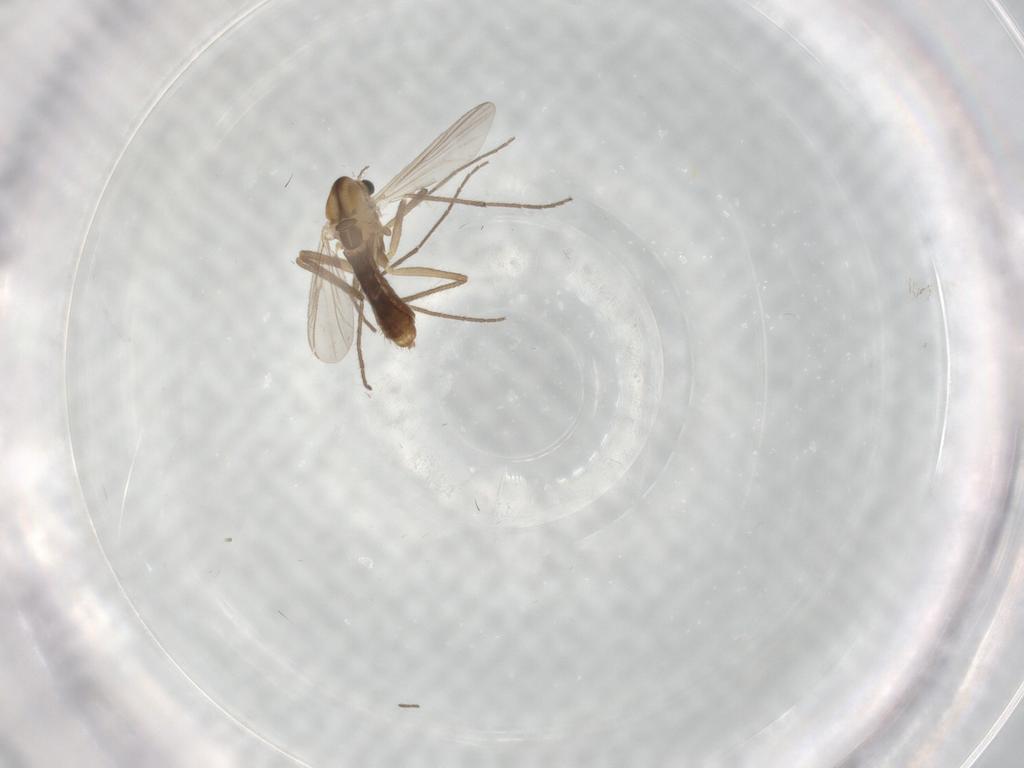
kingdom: Animalia
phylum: Arthropoda
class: Insecta
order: Diptera
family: Chironomidae
